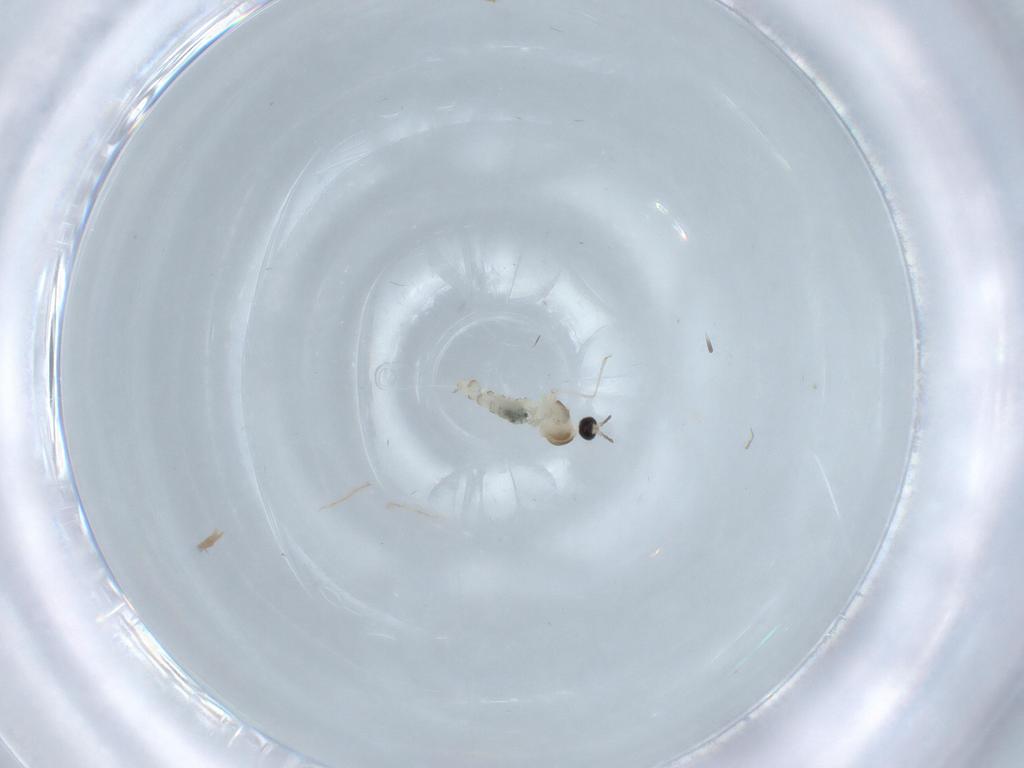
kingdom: Animalia
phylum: Arthropoda
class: Insecta
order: Diptera
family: Cecidomyiidae
